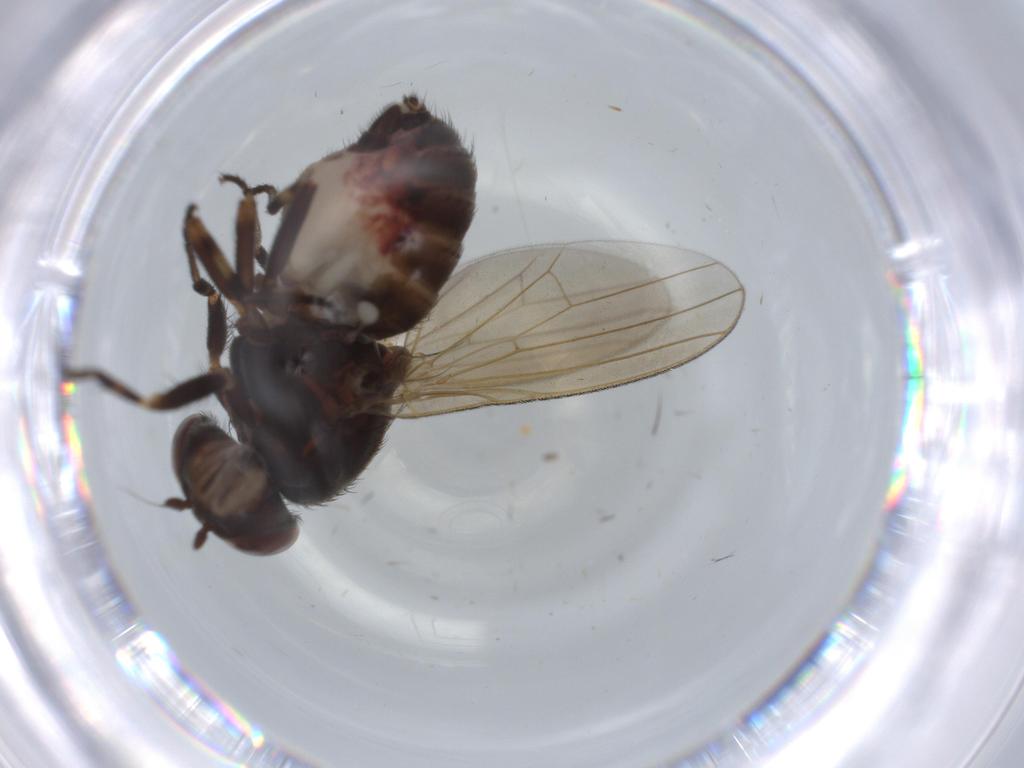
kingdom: Animalia
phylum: Arthropoda
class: Insecta
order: Diptera
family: Chironomidae
